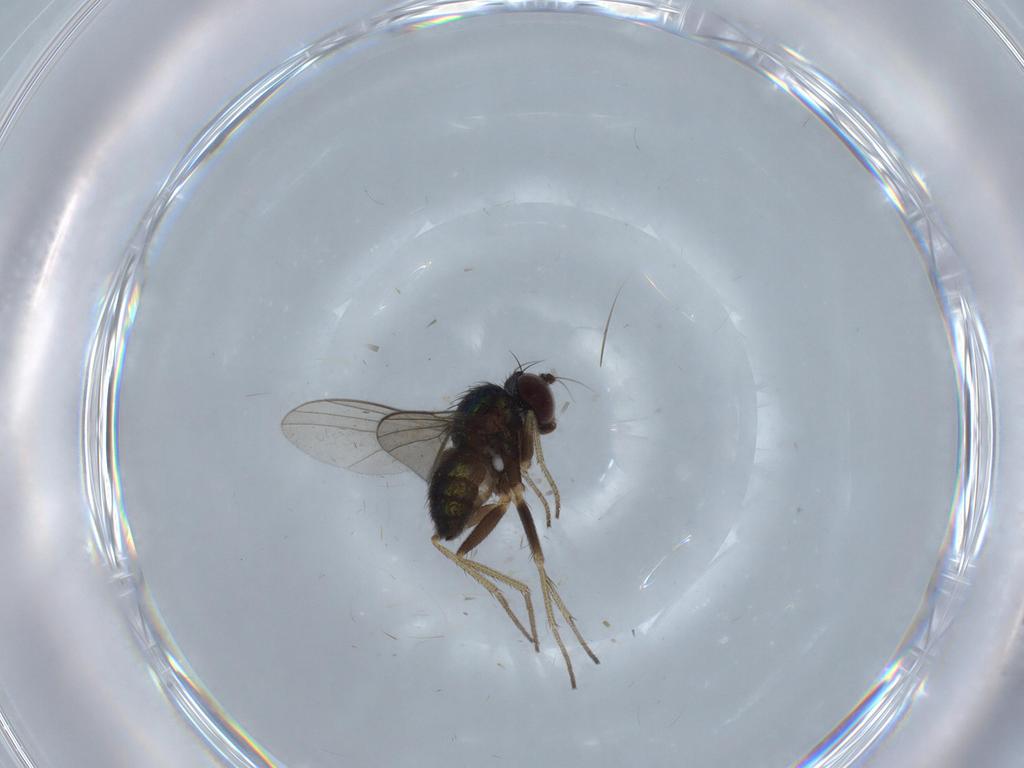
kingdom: Animalia
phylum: Arthropoda
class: Insecta
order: Diptera
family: Dolichopodidae
